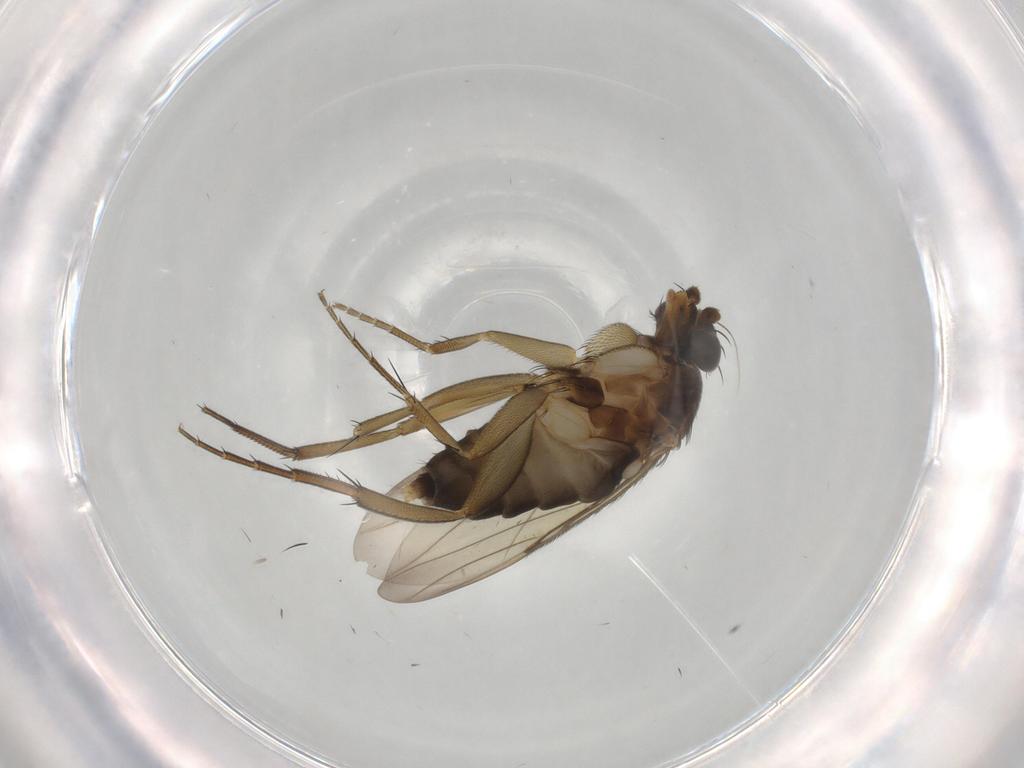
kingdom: Animalia
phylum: Arthropoda
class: Insecta
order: Diptera
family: Phoridae
